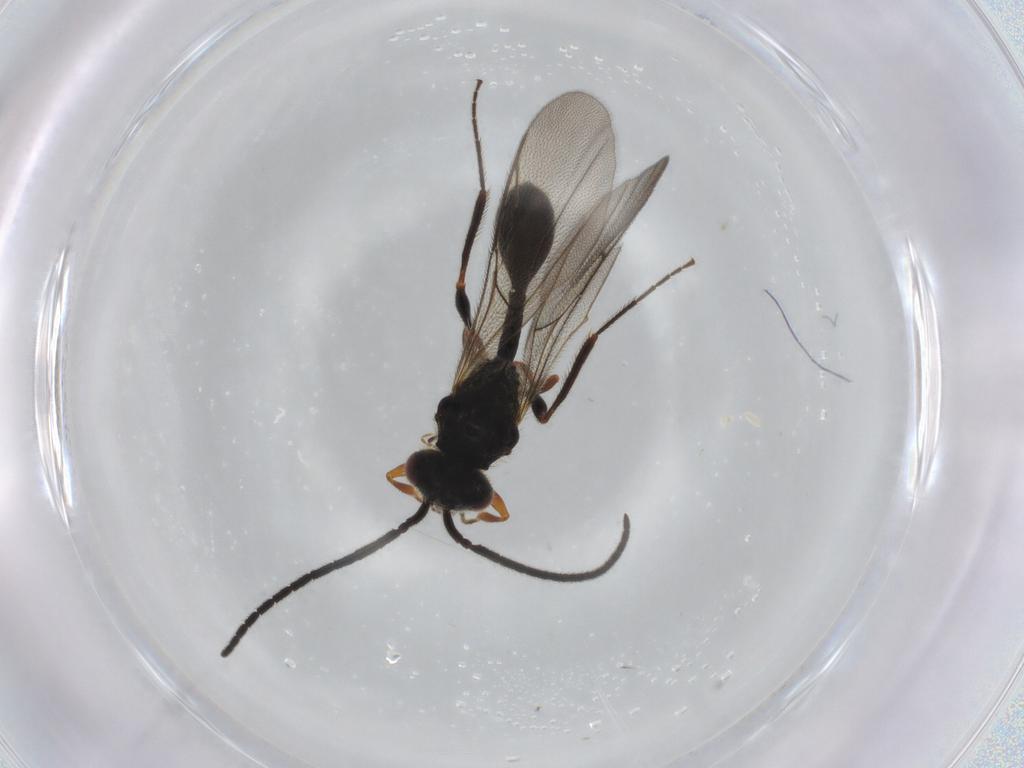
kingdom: Animalia
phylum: Arthropoda
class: Insecta
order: Hymenoptera
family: Diapriidae
